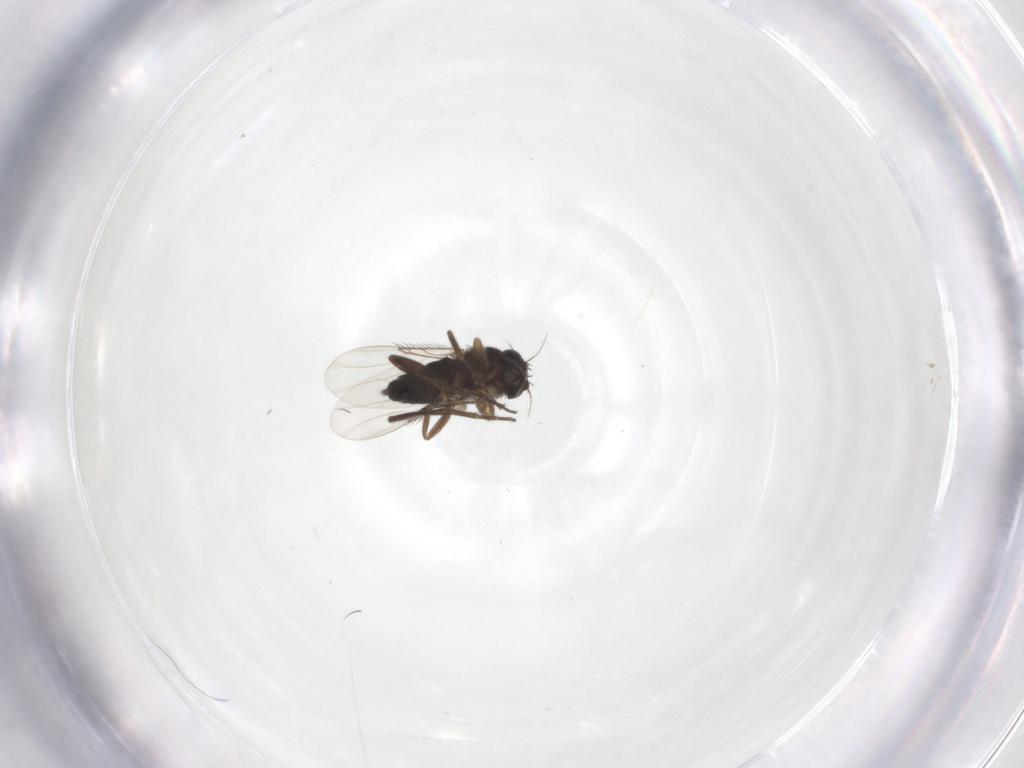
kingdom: Animalia
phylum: Arthropoda
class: Insecta
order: Diptera
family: Phoridae
